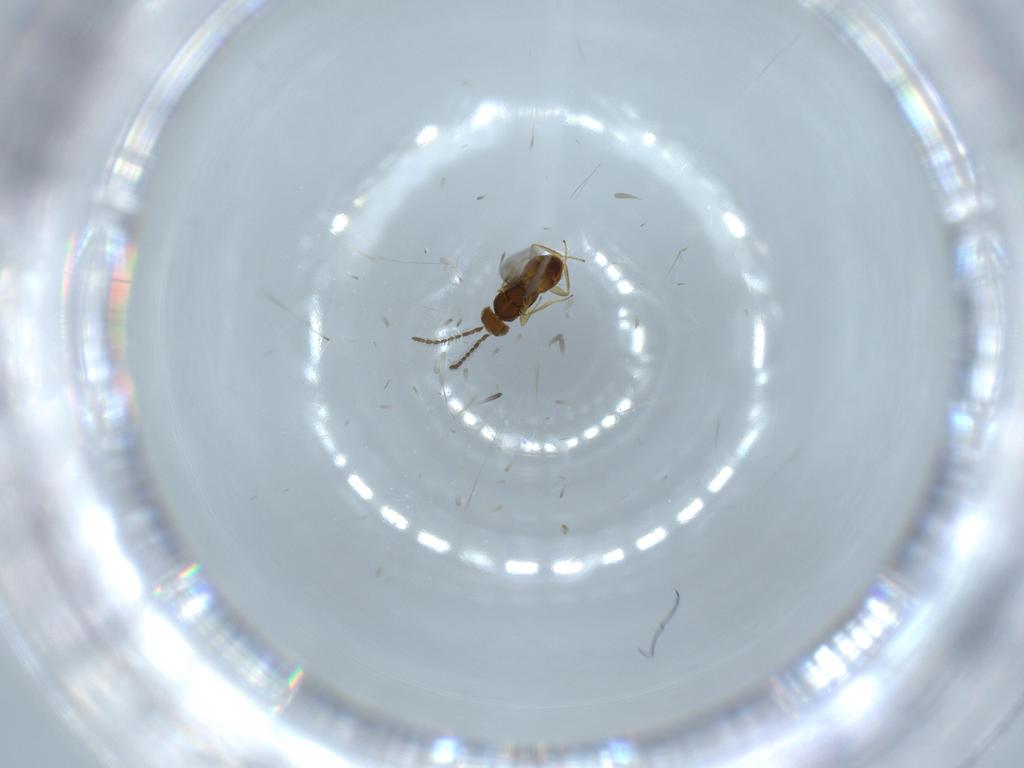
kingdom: Animalia
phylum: Arthropoda
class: Insecta
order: Hymenoptera
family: Encyrtidae
